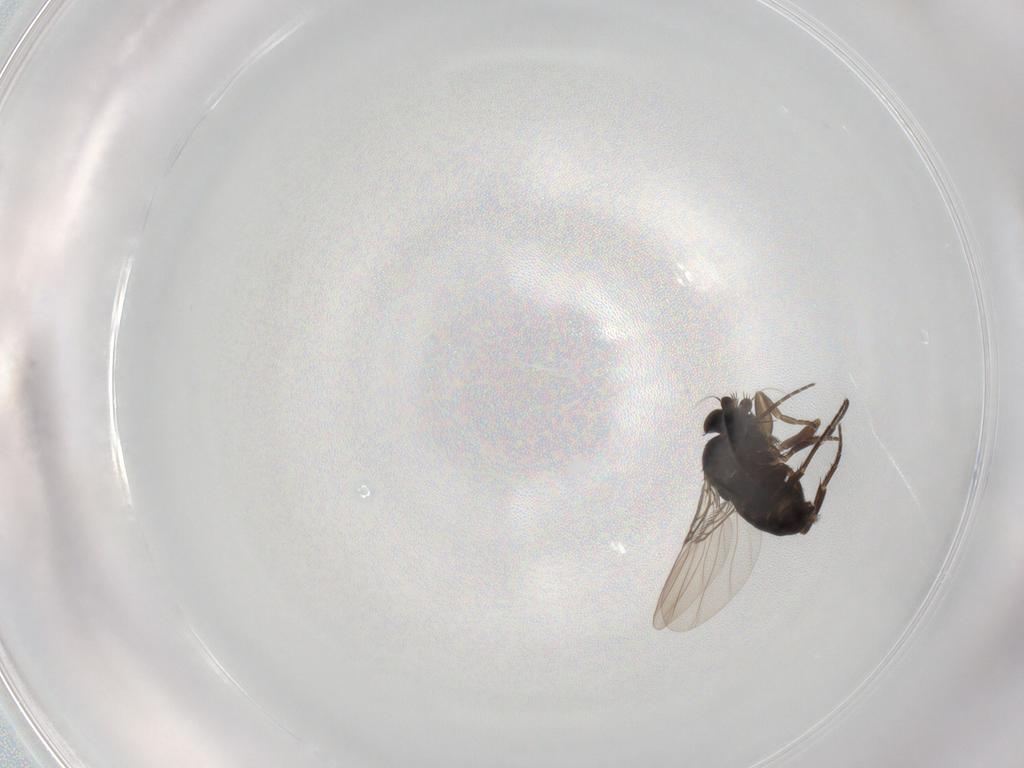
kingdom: Animalia
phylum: Arthropoda
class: Insecta
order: Diptera
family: Phoridae
